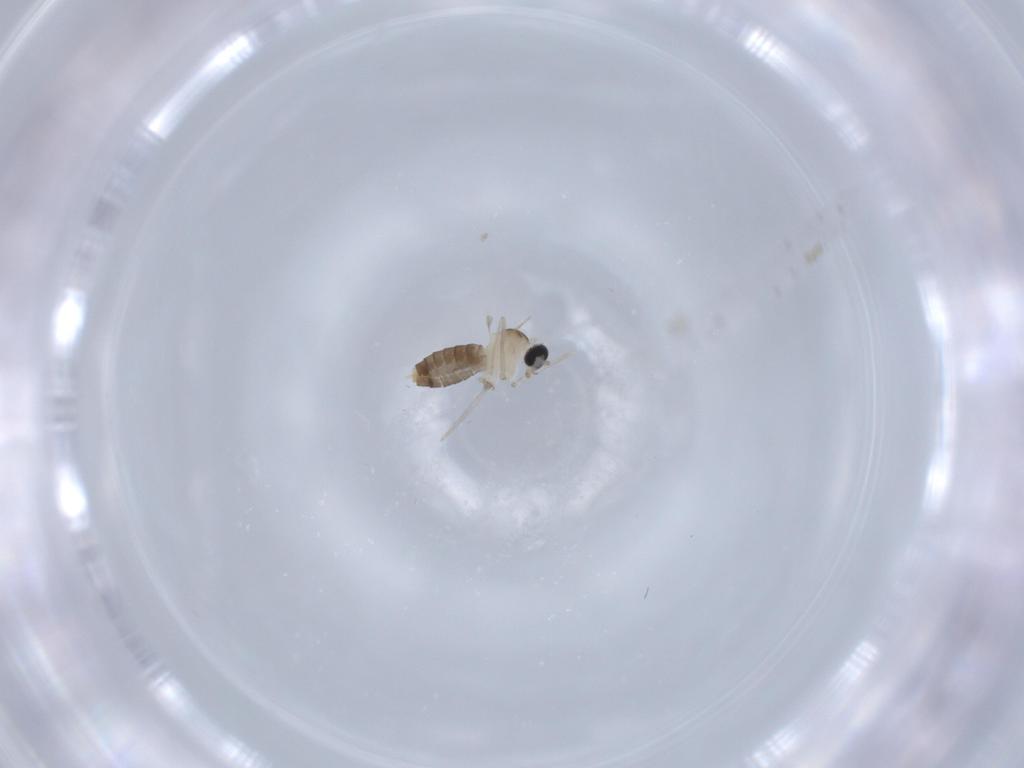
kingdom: Animalia
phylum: Arthropoda
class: Insecta
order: Diptera
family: Cecidomyiidae
